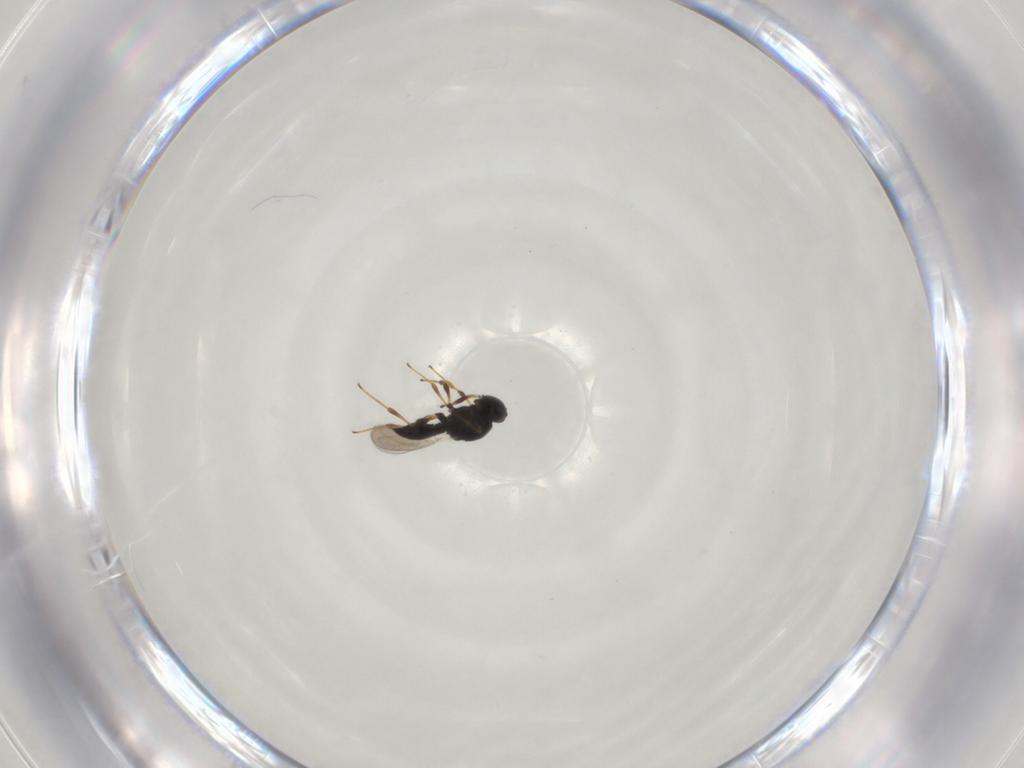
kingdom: Animalia
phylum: Arthropoda
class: Insecta
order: Hymenoptera
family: Platygastridae
